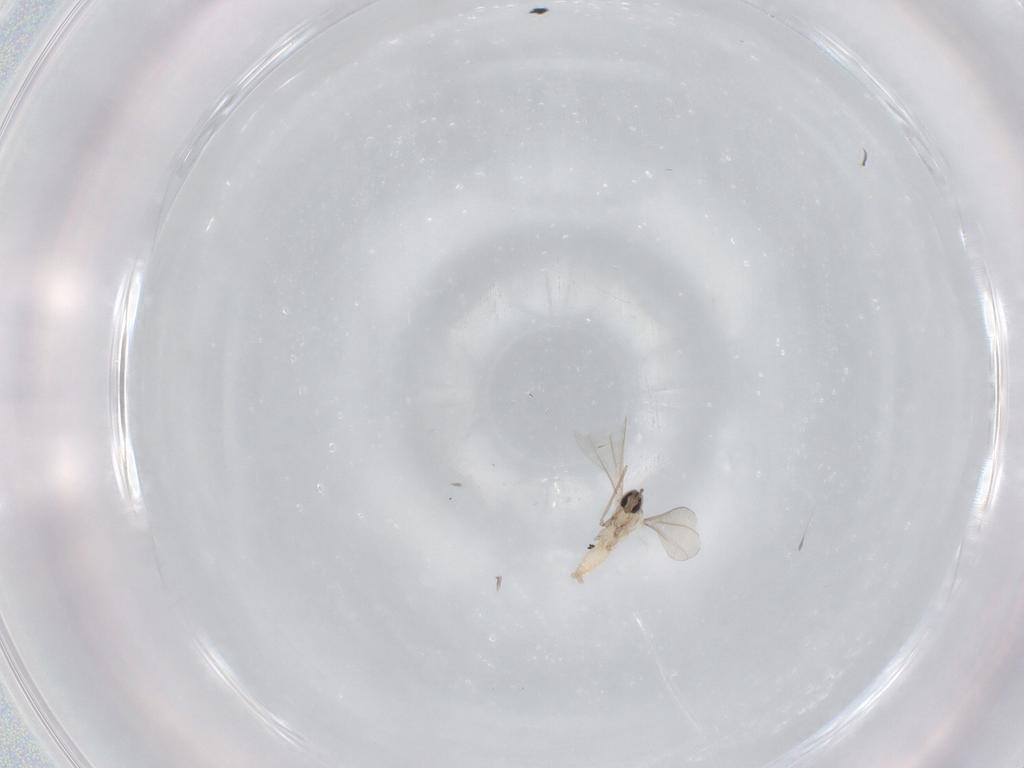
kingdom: Animalia
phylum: Arthropoda
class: Insecta
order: Diptera
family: Cecidomyiidae
